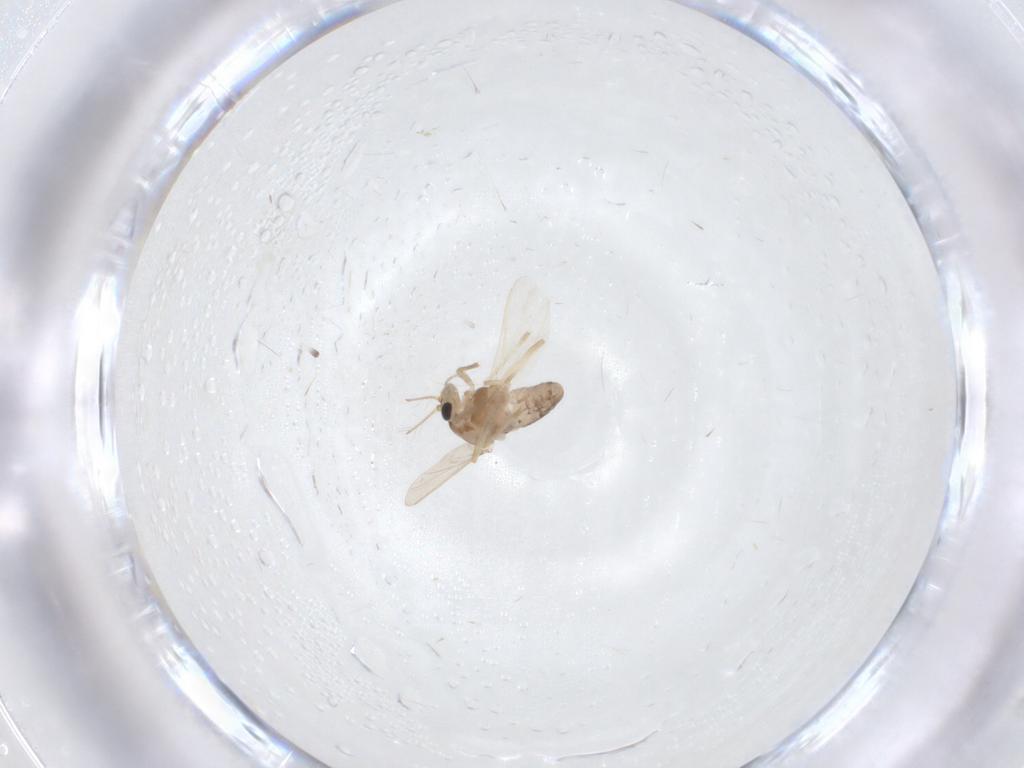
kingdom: Animalia
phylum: Arthropoda
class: Insecta
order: Diptera
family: Chironomidae
